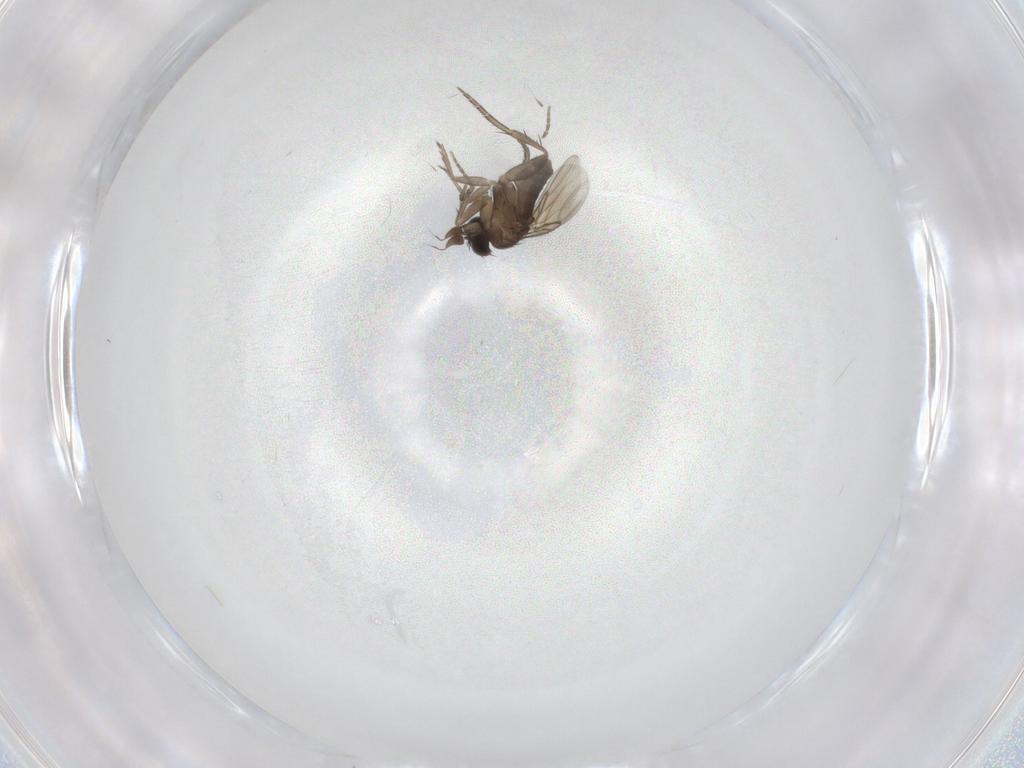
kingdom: Animalia
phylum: Arthropoda
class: Insecta
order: Diptera
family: Phoridae
